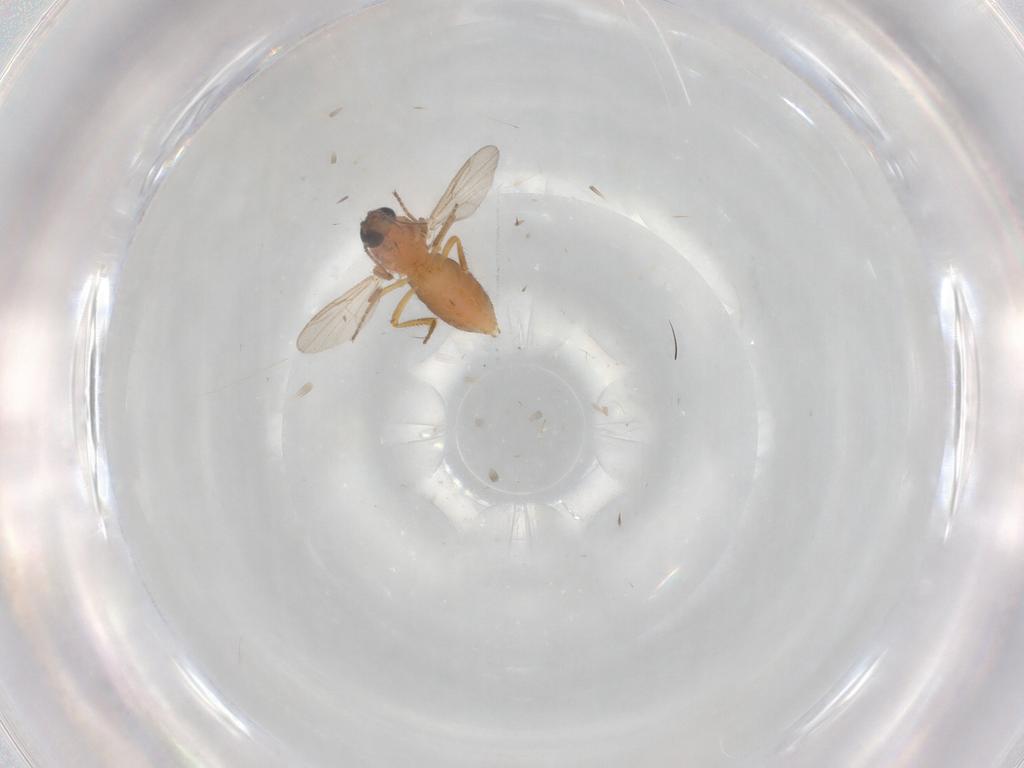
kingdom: Animalia
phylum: Arthropoda
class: Insecta
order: Diptera
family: Muscidae
